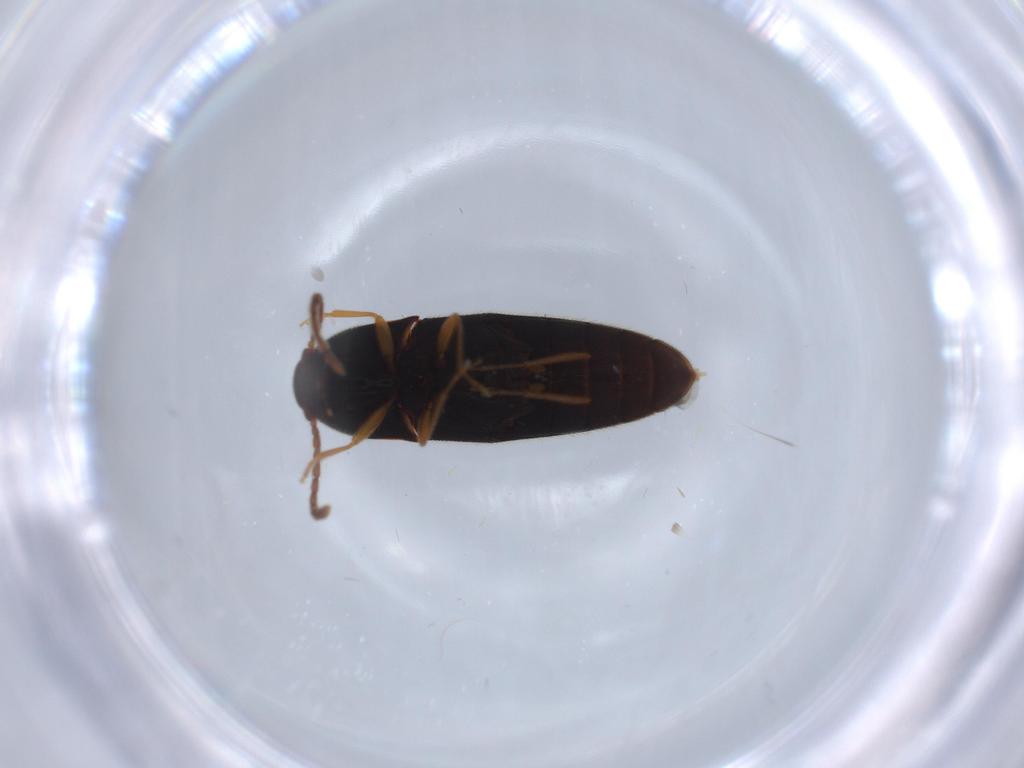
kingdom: Animalia
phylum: Arthropoda
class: Insecta
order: Coleoptera
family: Elateridae
